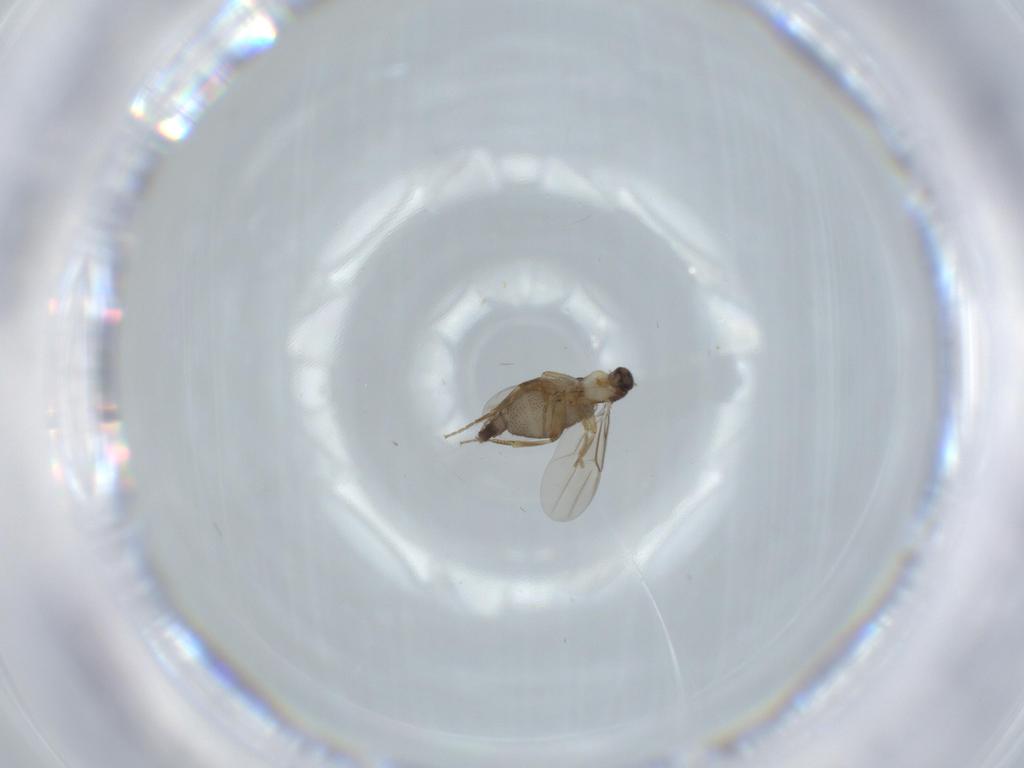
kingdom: Animalia
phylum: Arthropoda
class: Insecta
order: Diptera
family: Phoridae
